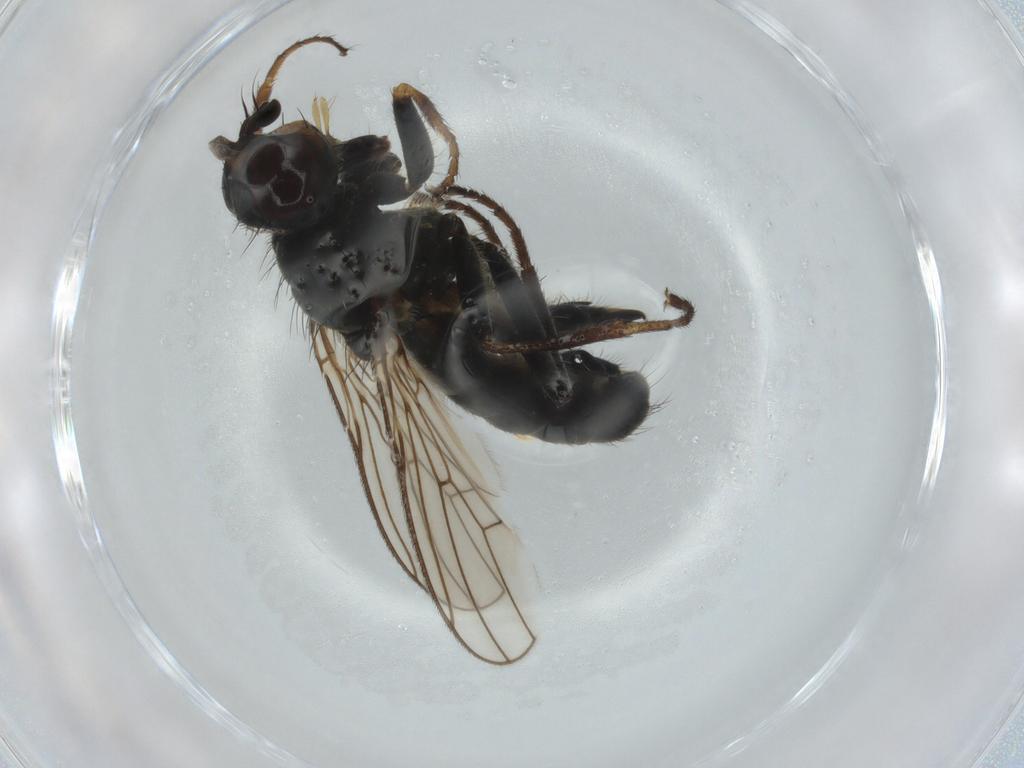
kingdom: Animalia
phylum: Arthropoda
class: Insecta
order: Diptera
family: Scathophagidae
